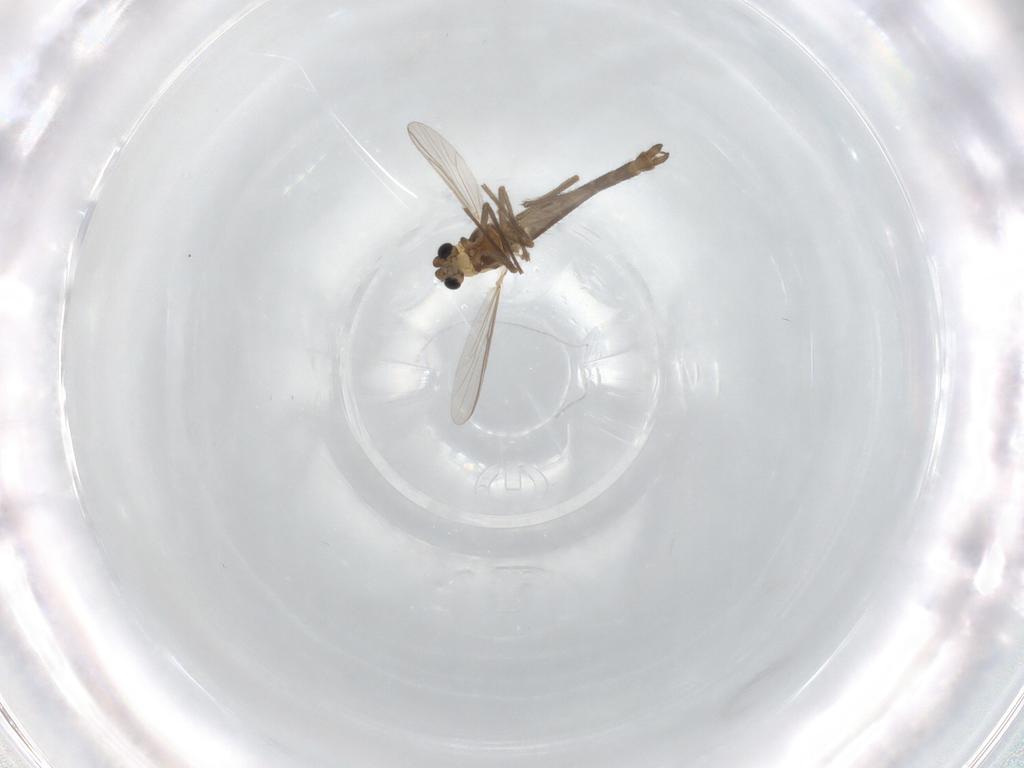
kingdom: Animalia
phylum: Arthropoda
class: Insecta
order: Diptera
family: Chironomidae
